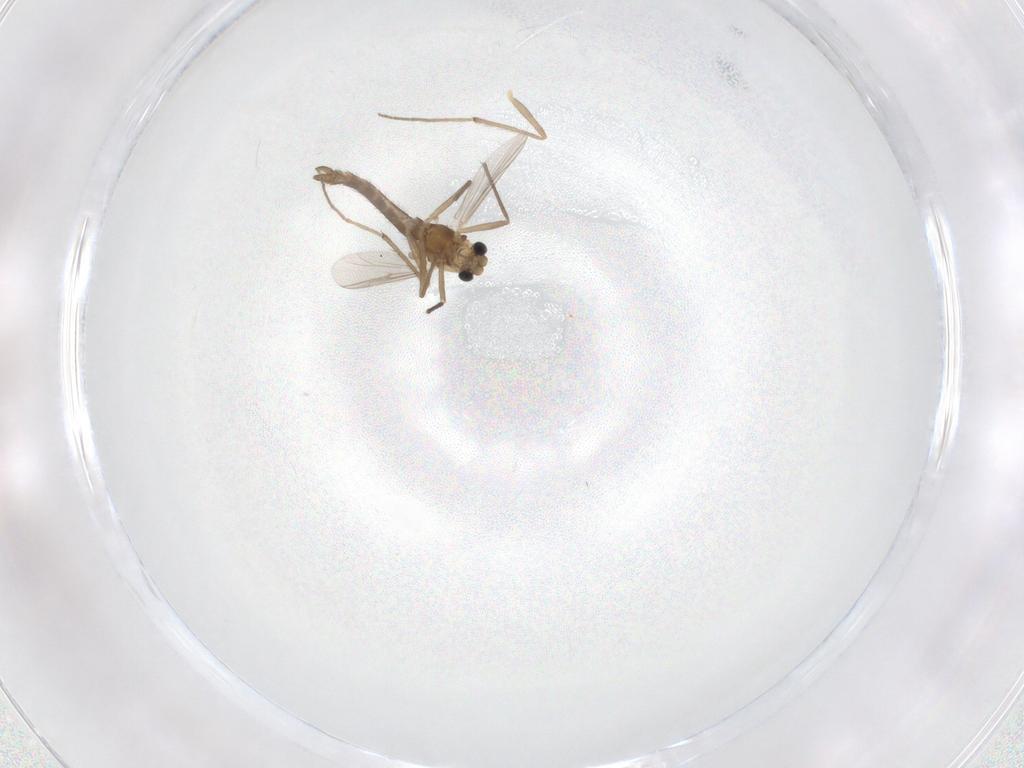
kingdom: Animalia
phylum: Arthropoda
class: Insecta
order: Diptera
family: Chironomidae
